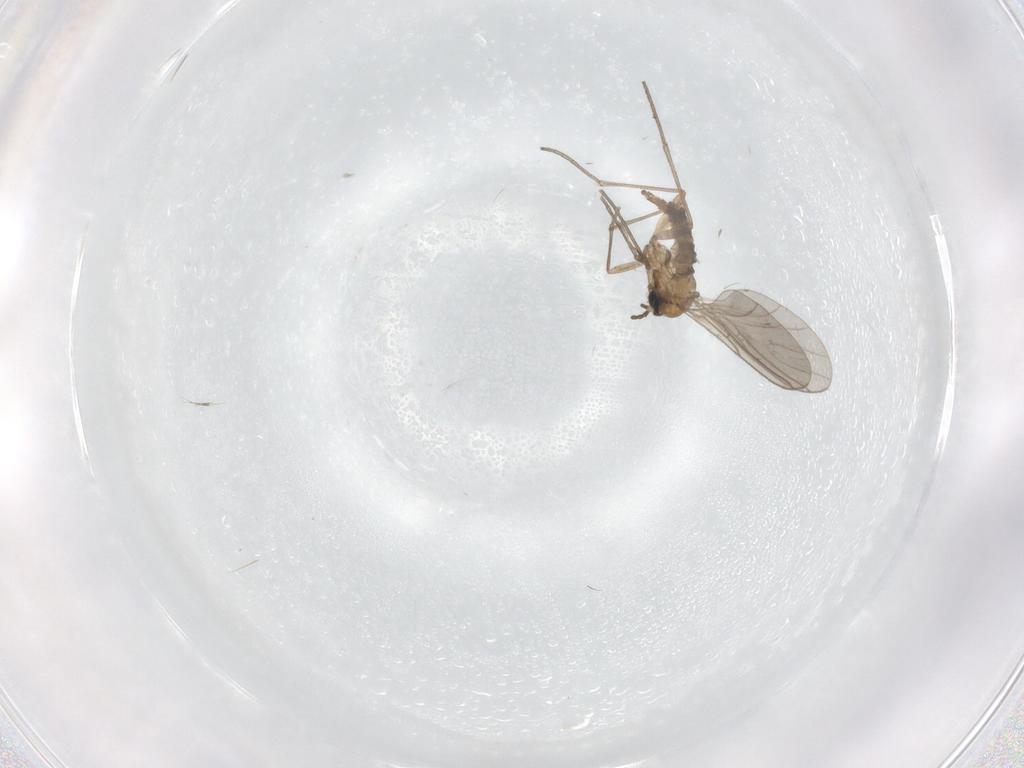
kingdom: Animalia
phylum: Arthropoda
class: Insecta
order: Diptera
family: Sciaridae
